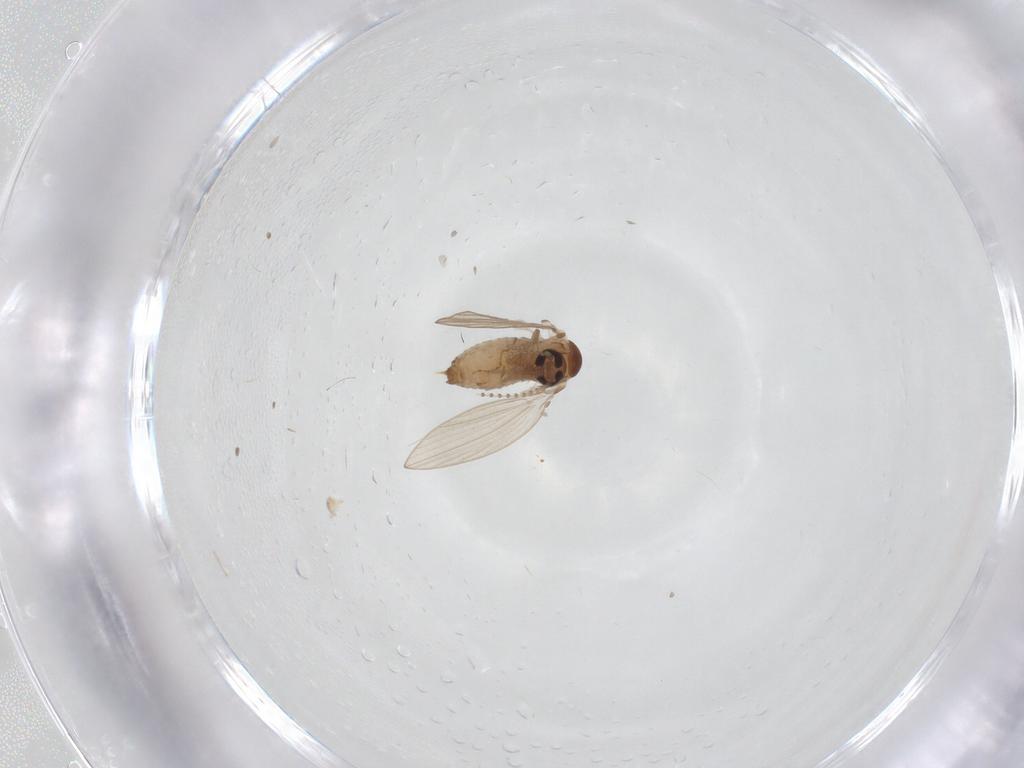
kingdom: Animalia
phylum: Arthropoda
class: Insecta
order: Diptera
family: Psychodidae
